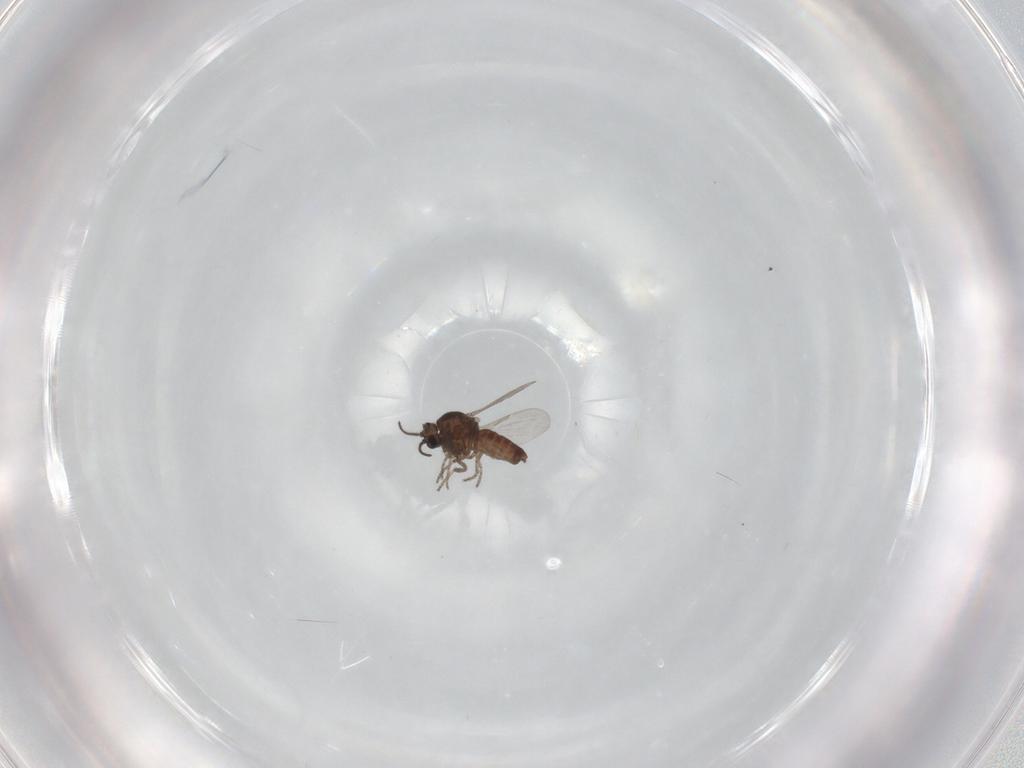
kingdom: Animalia
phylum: Arthropoda
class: Insecta
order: Diptera
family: Ceratopogonidae
